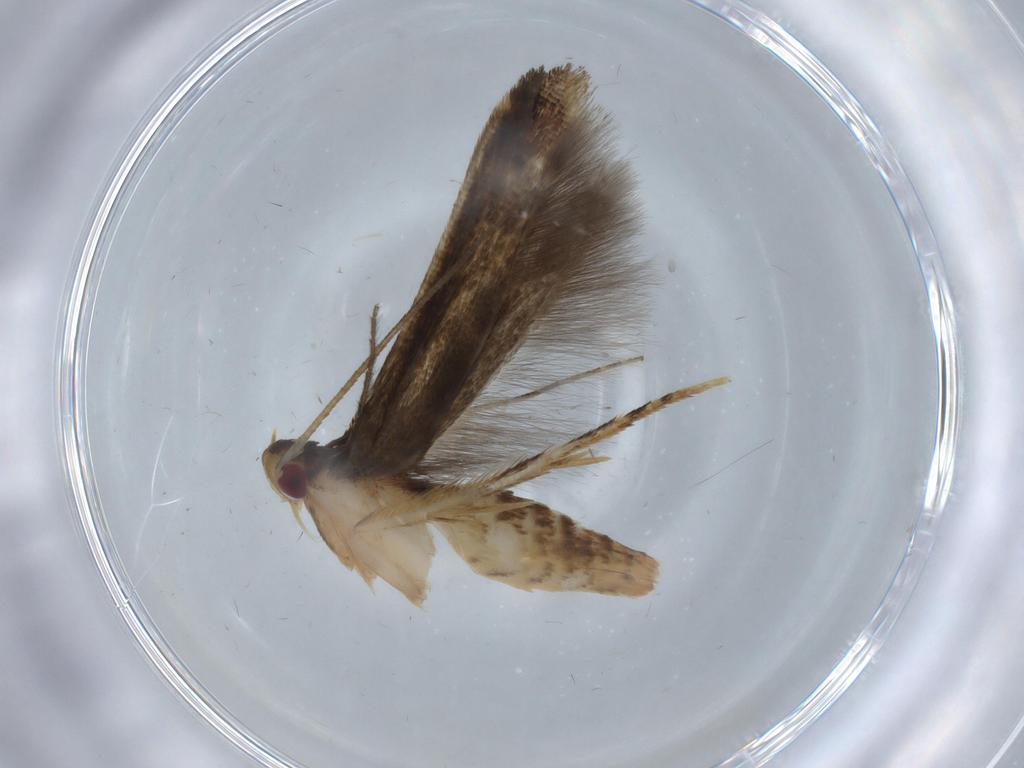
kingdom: Animalia
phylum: Arthropoda
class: Insecta
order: Lepidoptera
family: Momphidae
